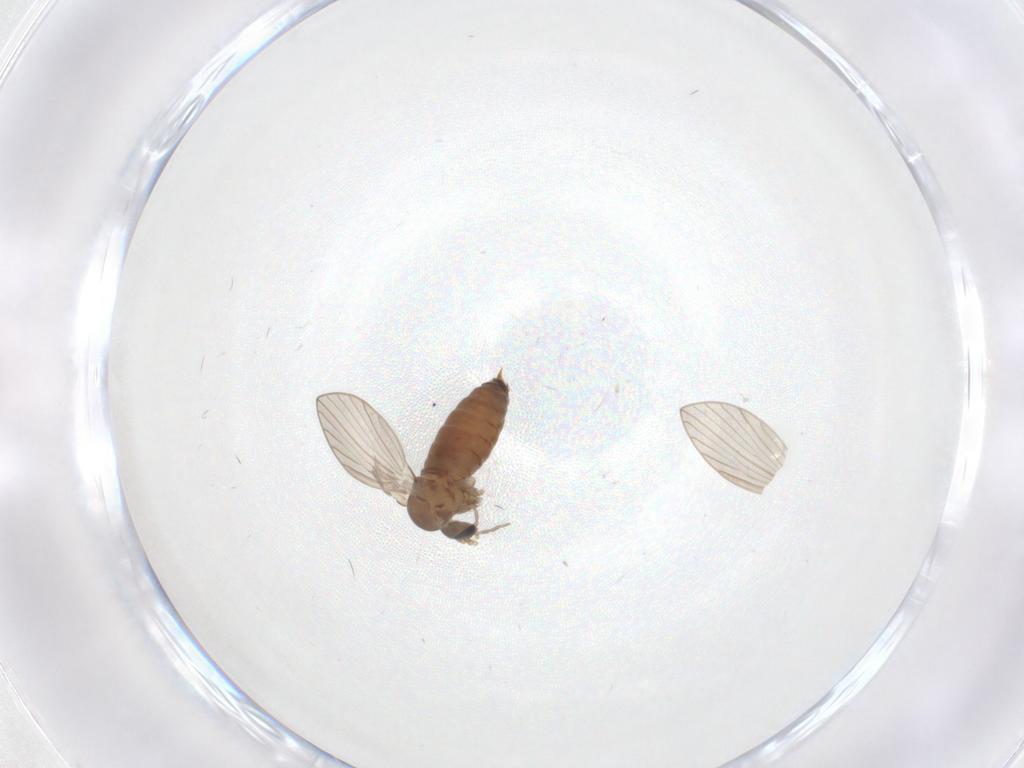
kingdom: Animalia
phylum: Arthropoda
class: Insecta
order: Diptera
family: Psychodidae
